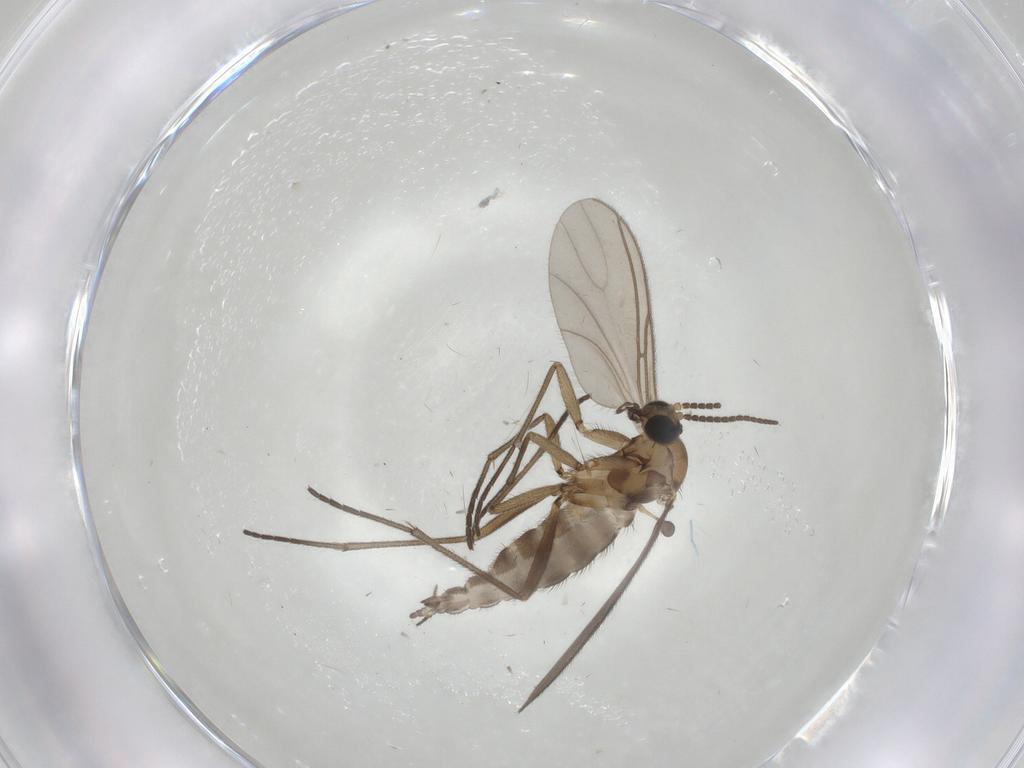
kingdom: Animalia
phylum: Arthropoda
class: Insecta
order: Diptera
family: Sciaridae
